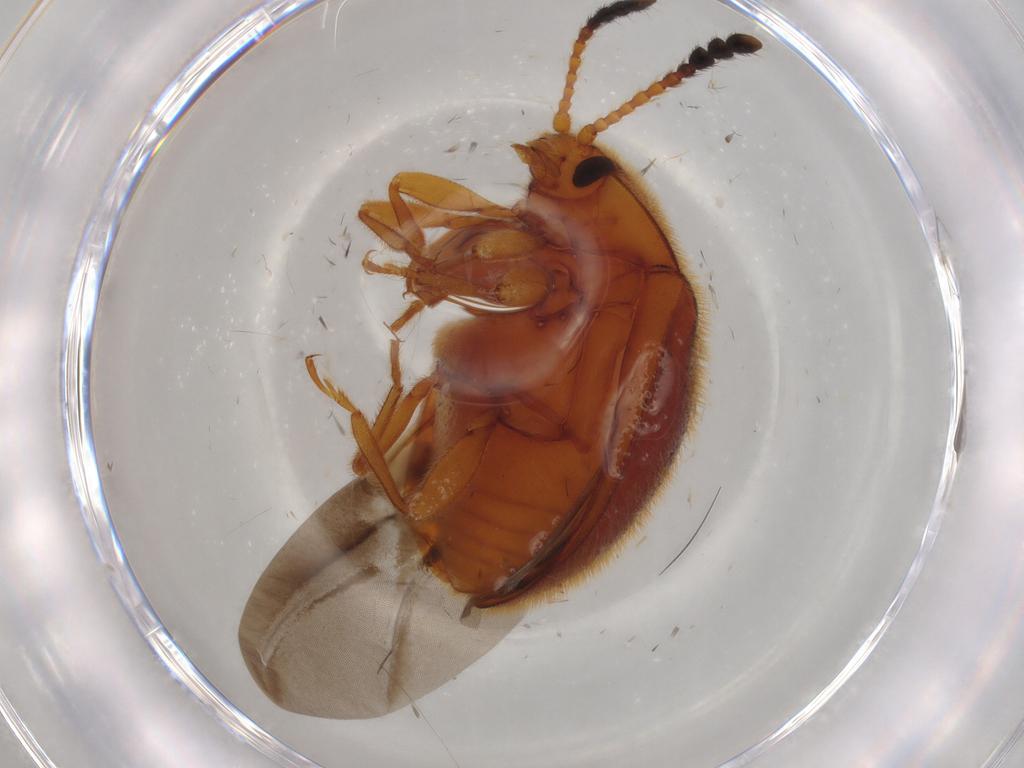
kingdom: Animalia
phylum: Arthropoda
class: Insecta
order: Coleoptera
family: Endomychidae
